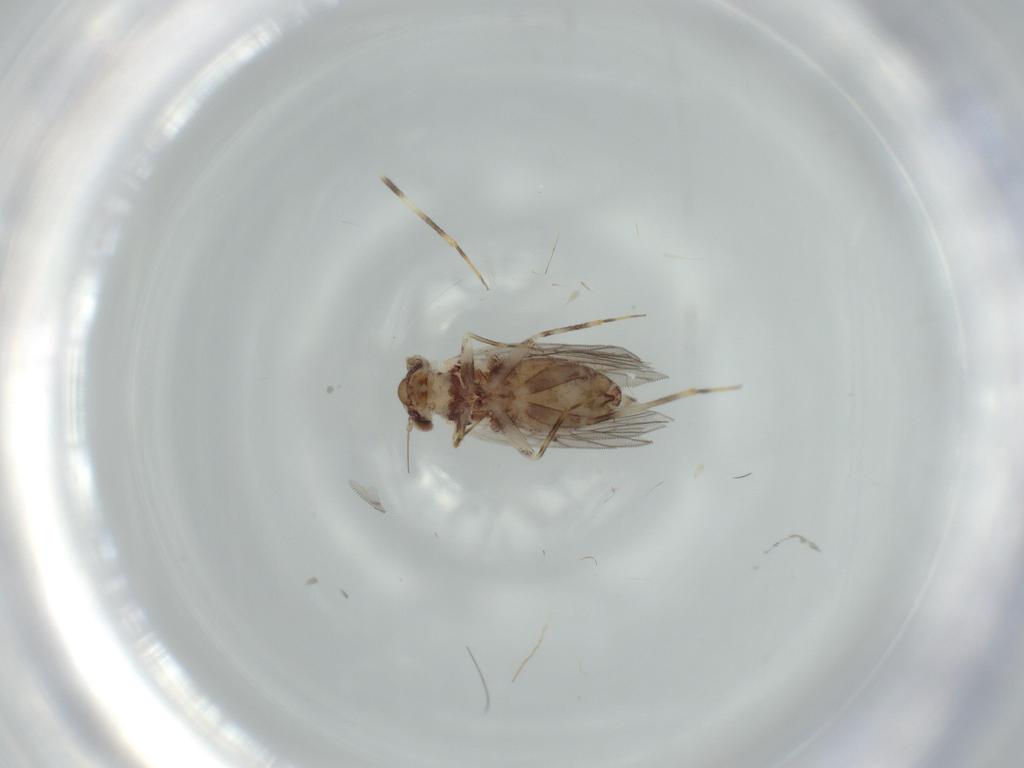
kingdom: Animalia
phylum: Arthropoda
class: Insecta
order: Psocodea
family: Lepidopsocidae
